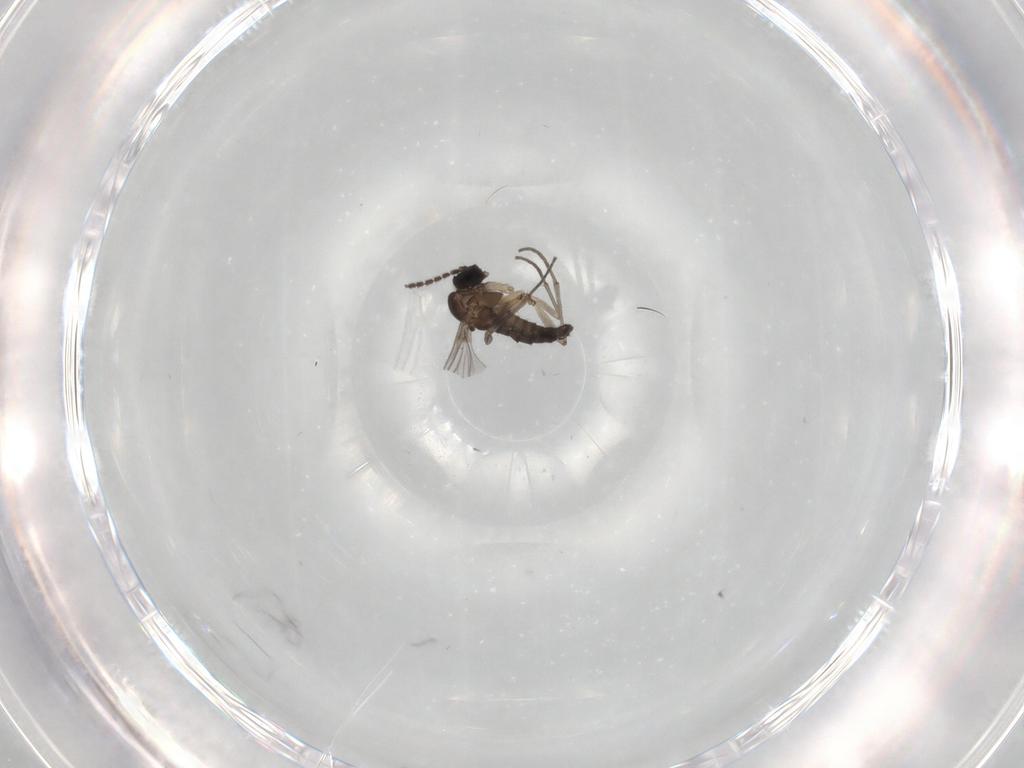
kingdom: Animalia
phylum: Arthropoda
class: Insecta
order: Diptera
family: Sciaridae
